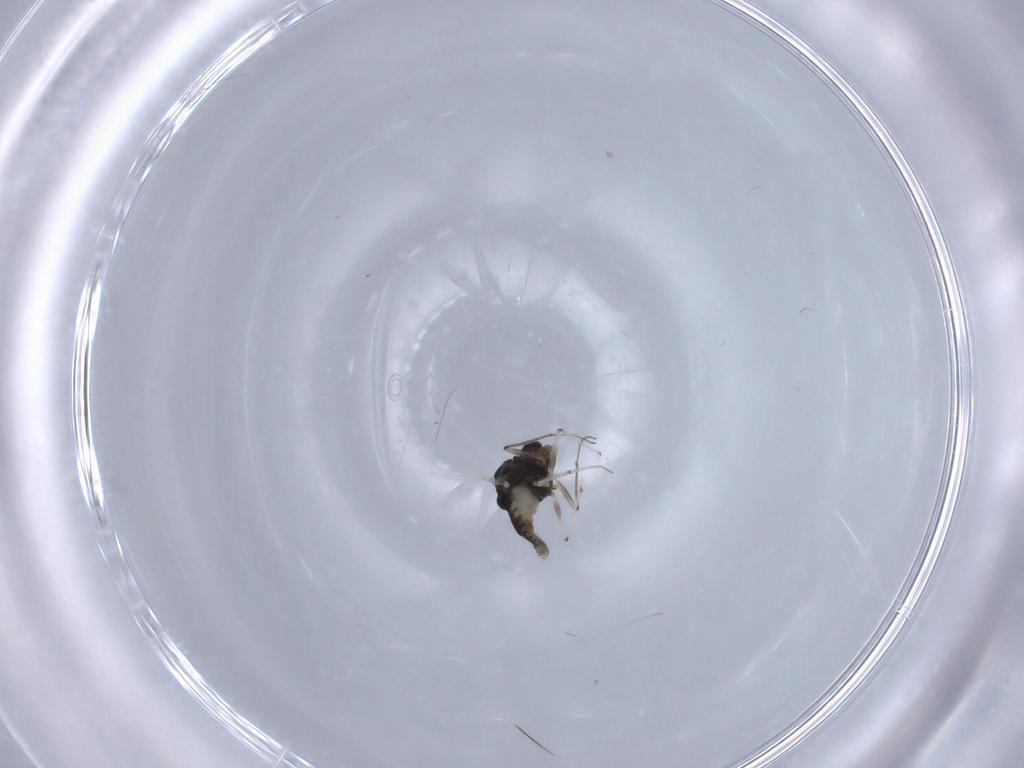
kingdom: Animalia
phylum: Arthropoda
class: Insecta
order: Diptera
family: Chironomidae
